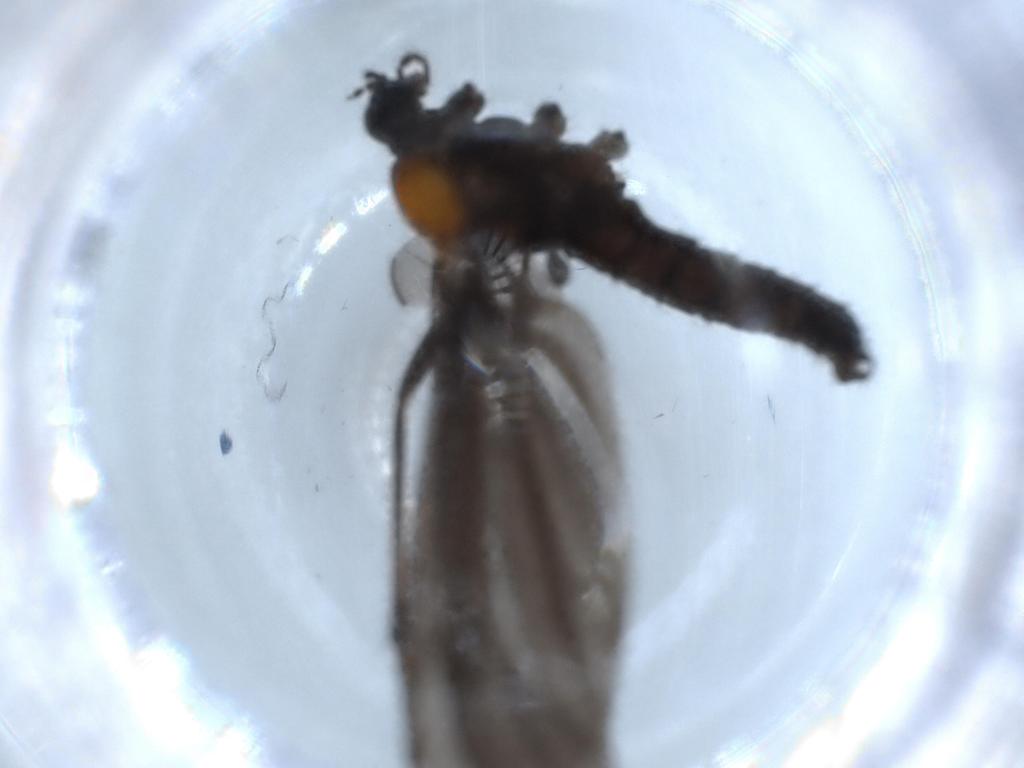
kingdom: Animalia
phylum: Arthropoda
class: Insecta
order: Diptera
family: Limoniidae
